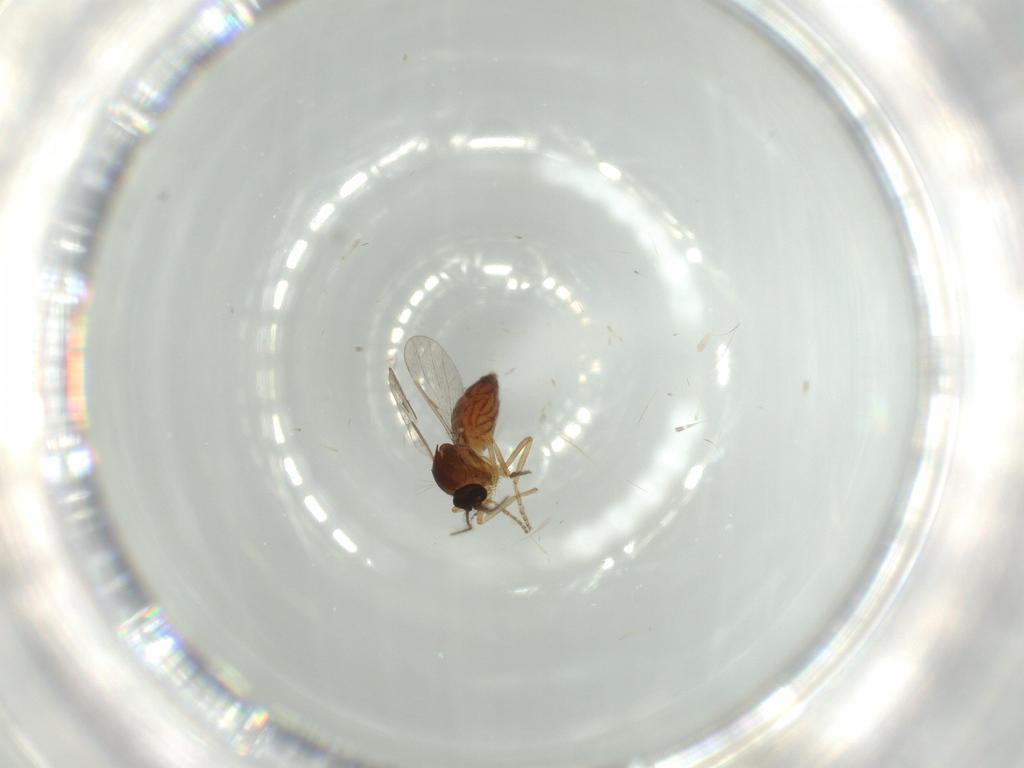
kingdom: Animalia
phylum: Arthropoda
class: Insecta
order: Diptera
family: Ceratopogonidae
